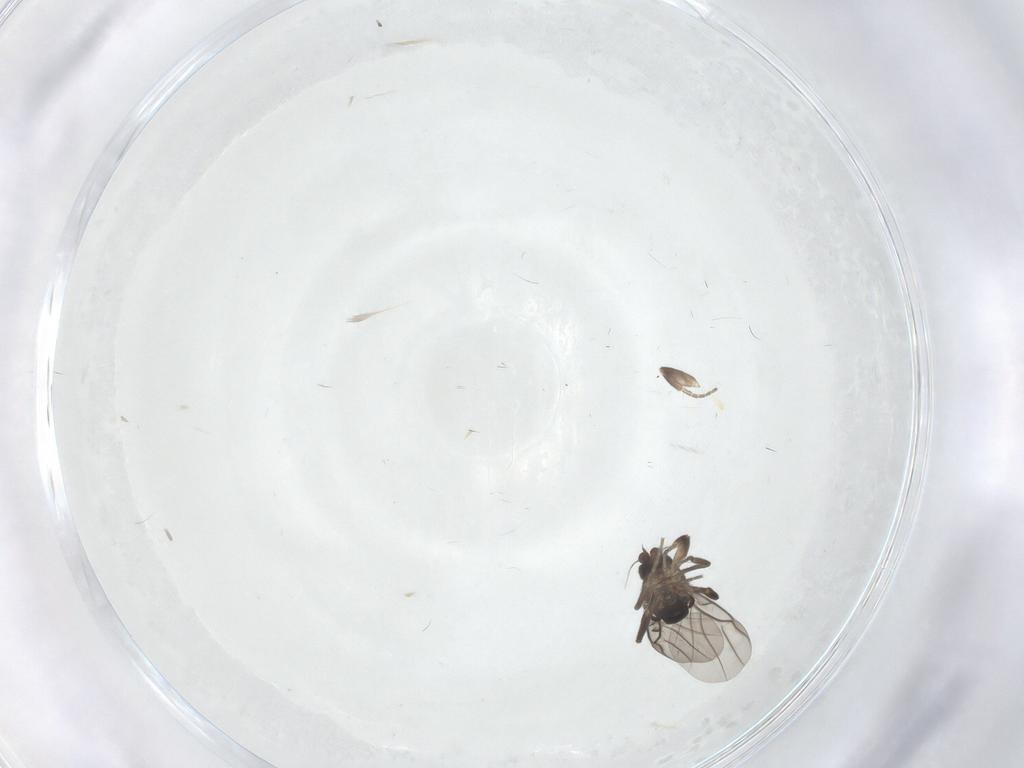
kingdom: Animalia
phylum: Arthropoda
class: Insecta
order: Diptera
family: Phoridae
